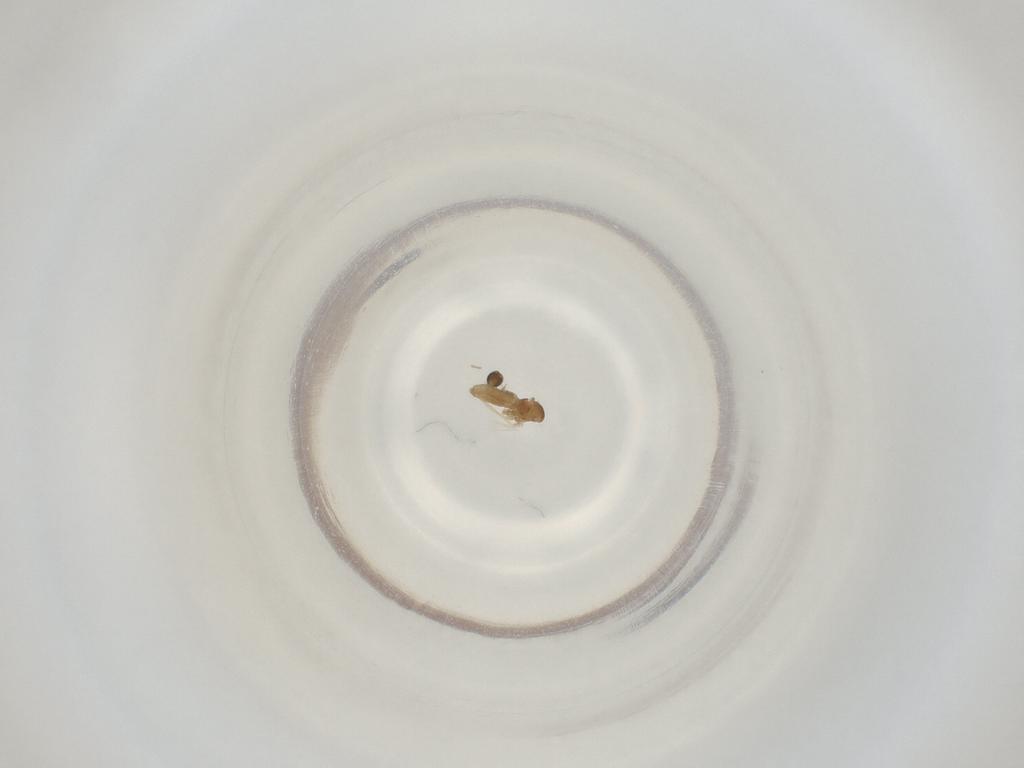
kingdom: Animalia
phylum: Arthropoda
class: Insecta
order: Diptera
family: Cecidomyiidae
